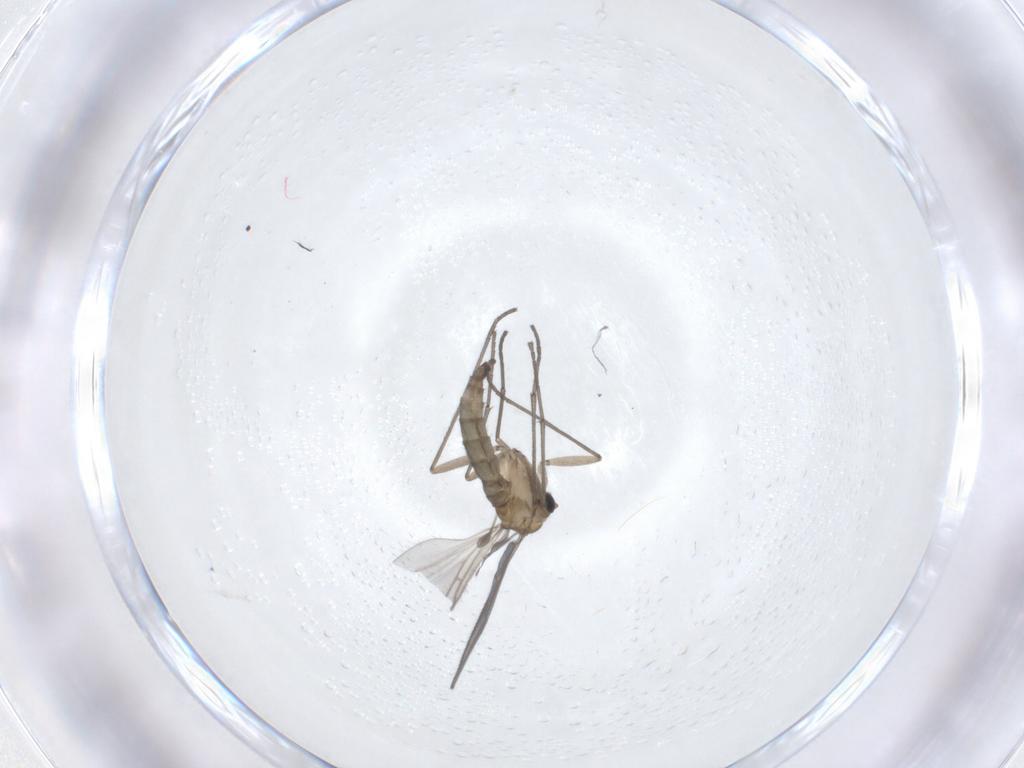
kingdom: Animalia
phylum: Arthropoda
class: Insecta
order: Diptera
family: Sciaridae
